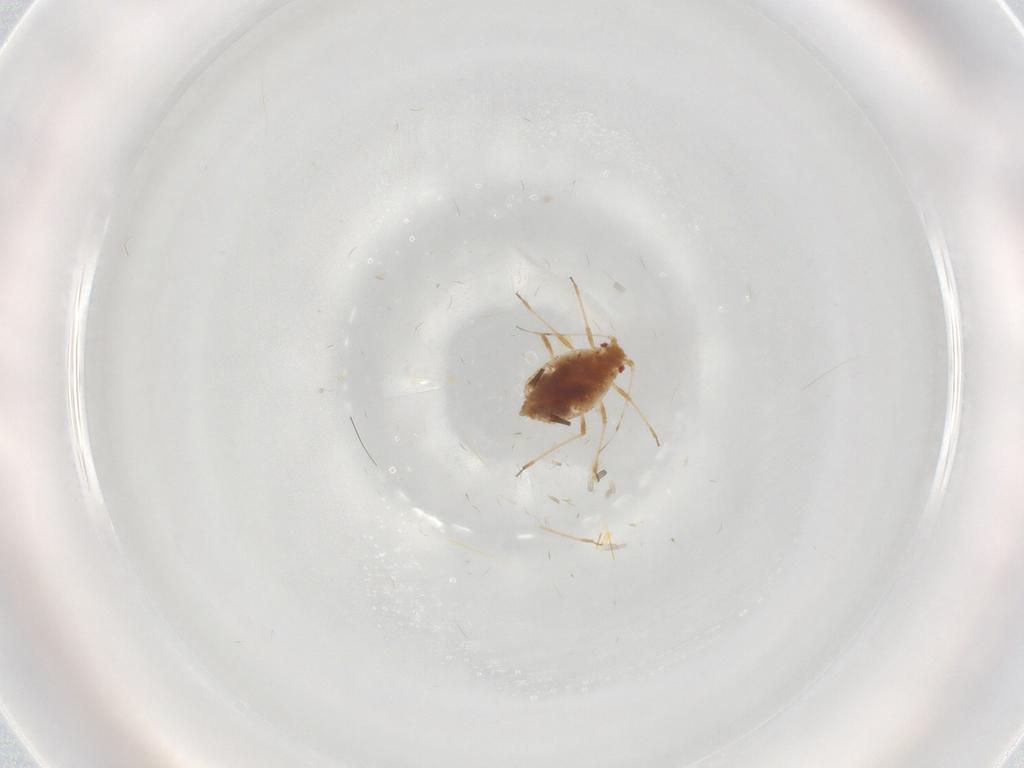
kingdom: Animalia
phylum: Arthropoda
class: Insecta
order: Hemiptera
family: Aphididae
